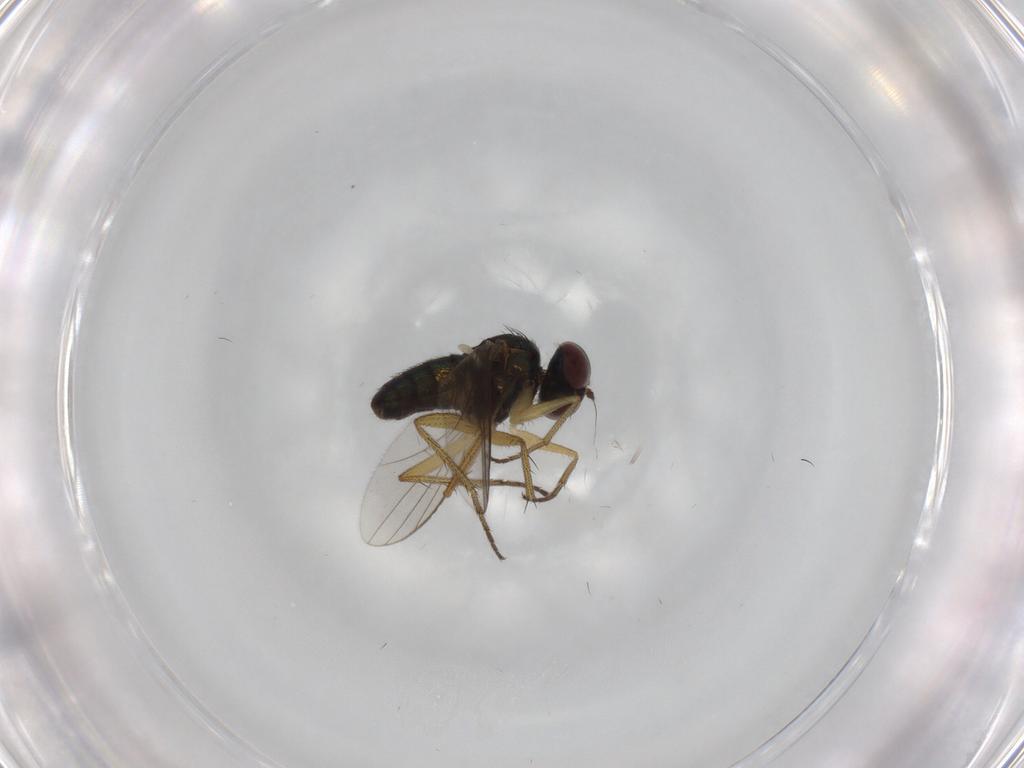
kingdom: Animalia
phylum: Arthropoda
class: Insecta
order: Diptera
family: Dolichopodidae
